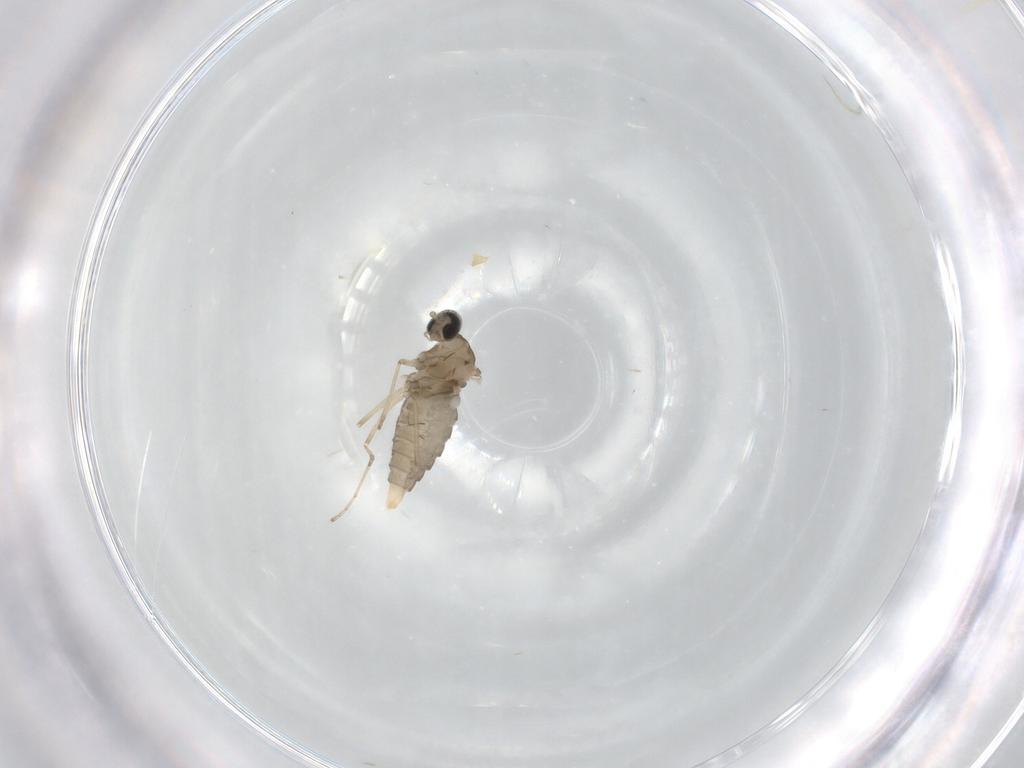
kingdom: Animalia
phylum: Arthropoda
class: Insecta
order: Diptera
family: Cecidomyiidae
